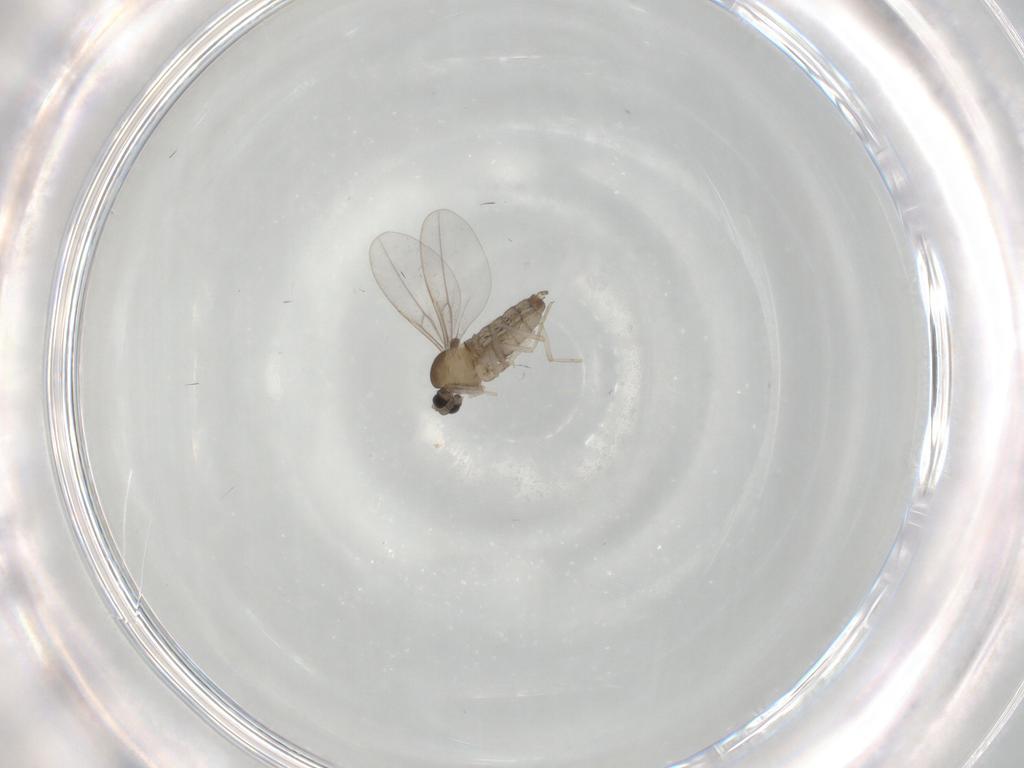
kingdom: Animalia
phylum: Arthropoda
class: Insecta
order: Diptera
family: Cecidomyiidae
